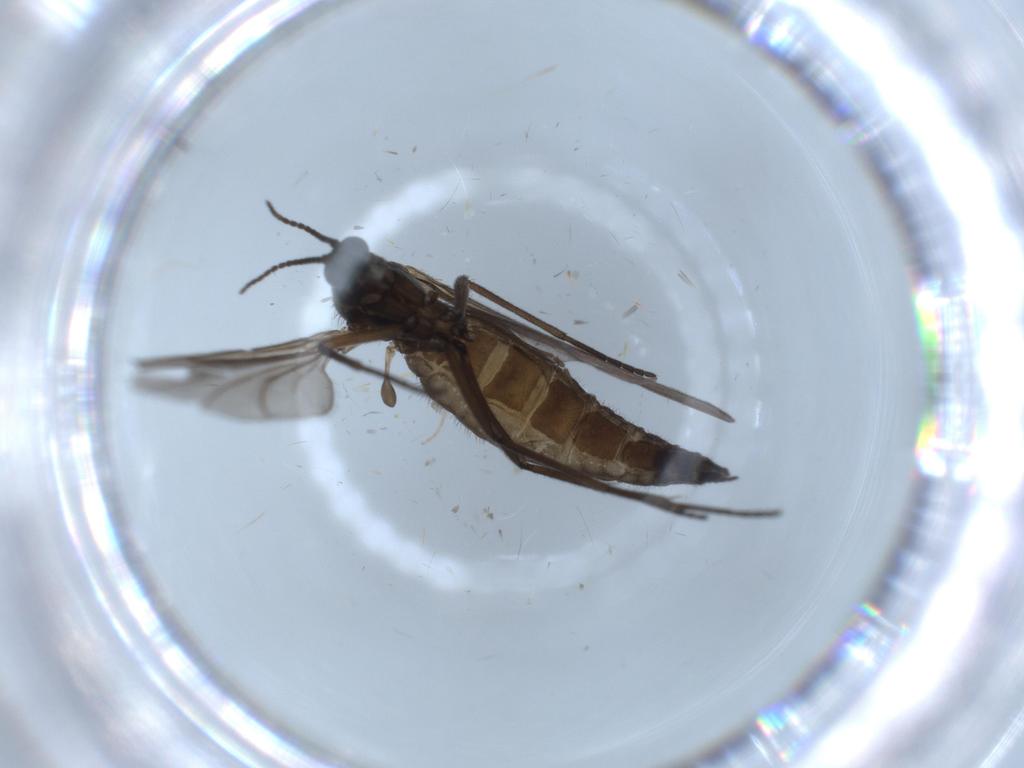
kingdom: Animalia
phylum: Arthropoda
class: Insecta
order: Diptera
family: Sciaridae
